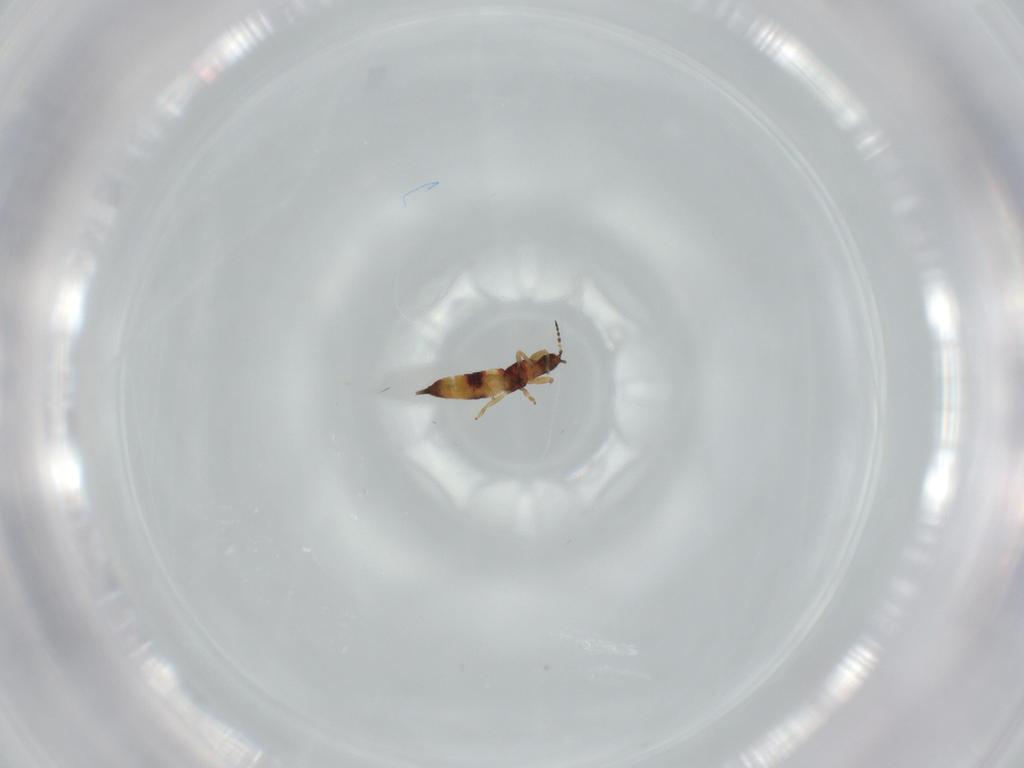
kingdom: Animalia
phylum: Arthropoda
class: Insecta
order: Thysanoptera
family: Phlaeothripidae
